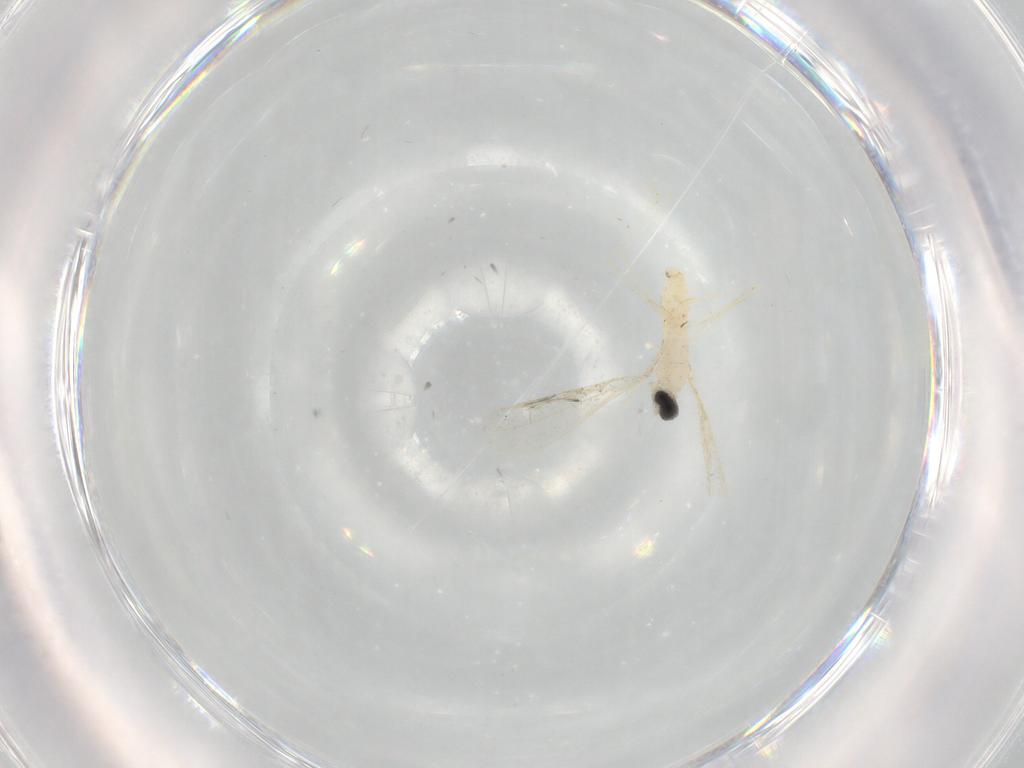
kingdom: Animalia
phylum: Arthropoda
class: Insecta
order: Diptera
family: Cecidomyiidae
